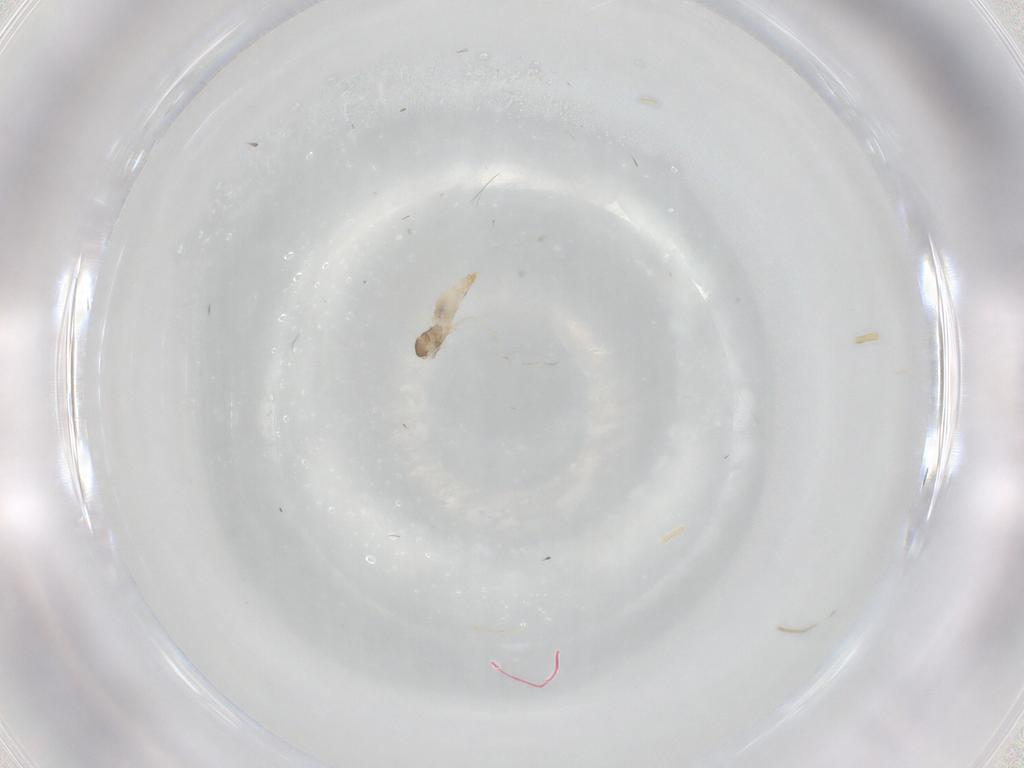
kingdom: Animalia
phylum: Arthropoda
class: Insecta
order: Diptera
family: Cecidomyiidae
